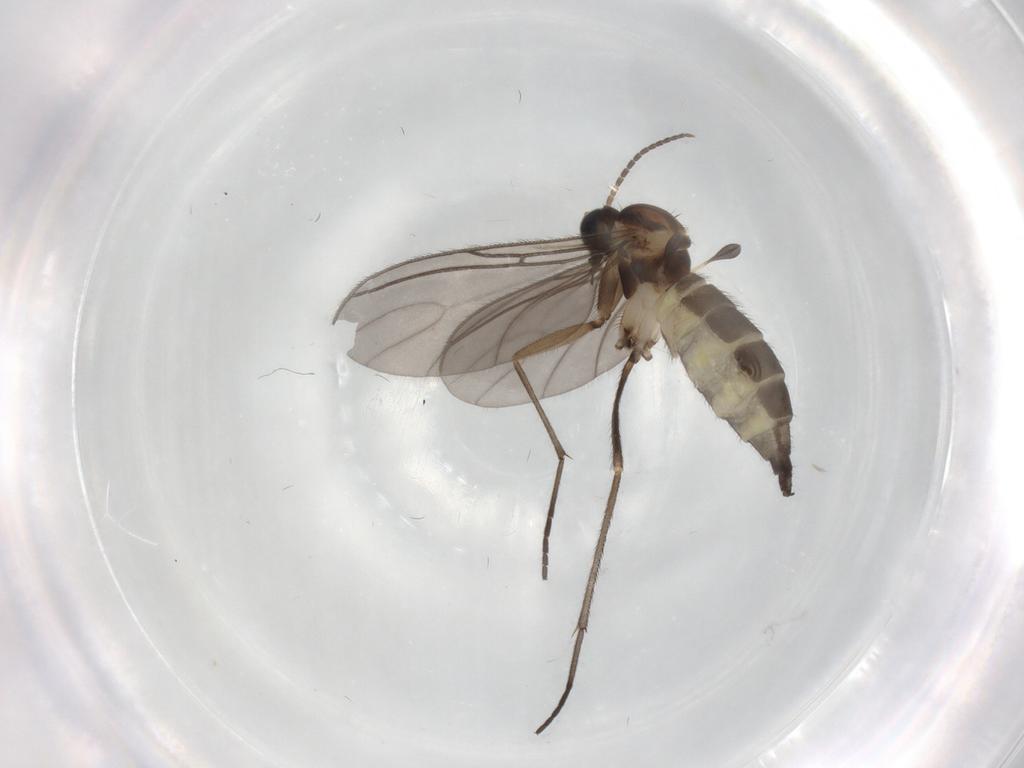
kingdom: Animalia
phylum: Arthropoda
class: Insecta
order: Diptera
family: Sciaridae
